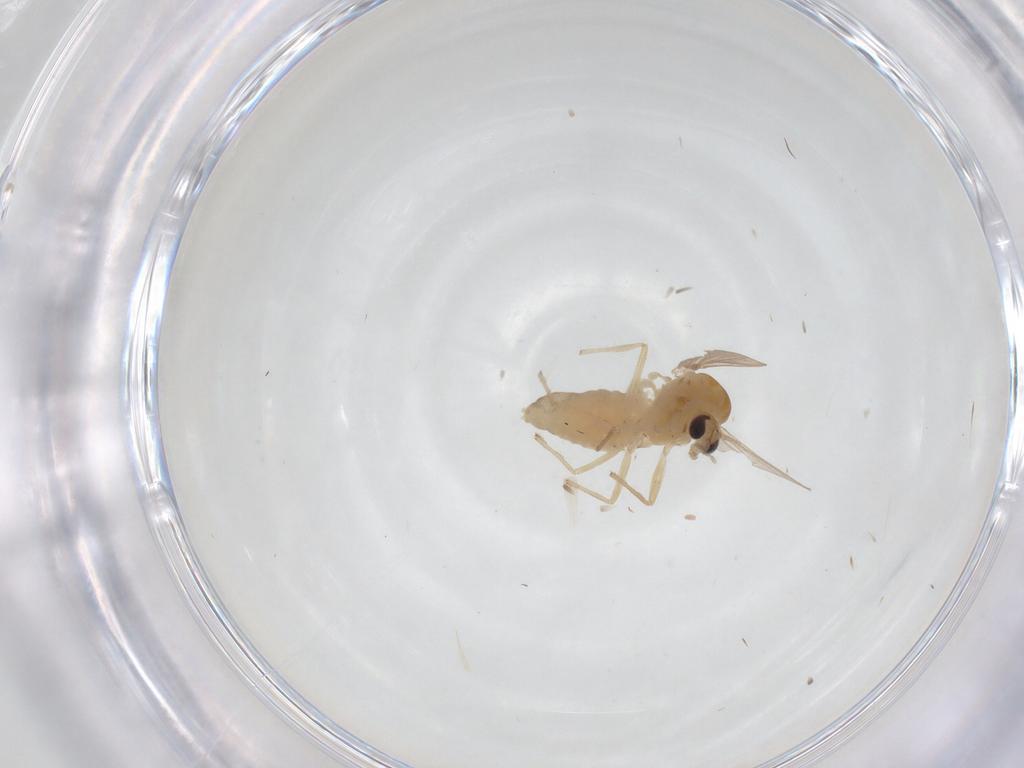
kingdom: Animalia
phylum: Arthropoda
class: Insecta
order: Diptera
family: Chironomidae
